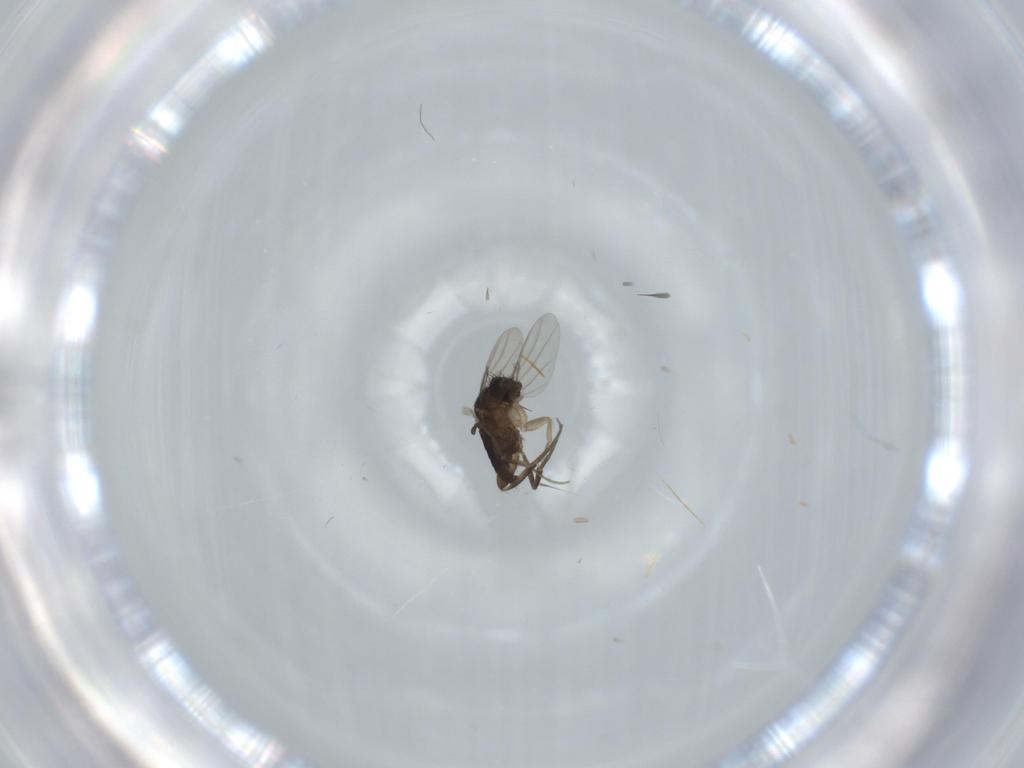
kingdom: Animalia
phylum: Arthropoda
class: Insecta
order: Diptera
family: Phoridae
